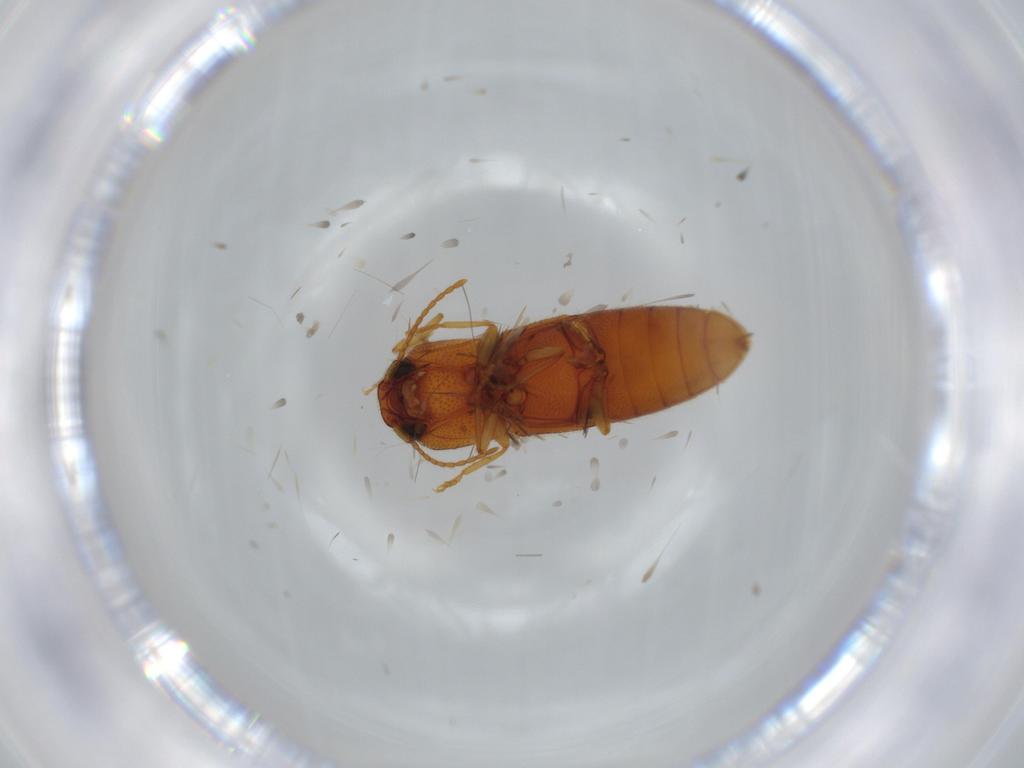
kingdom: Animalia
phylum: Arthropoda
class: Insecta
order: Coleoptera
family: Elateridae
